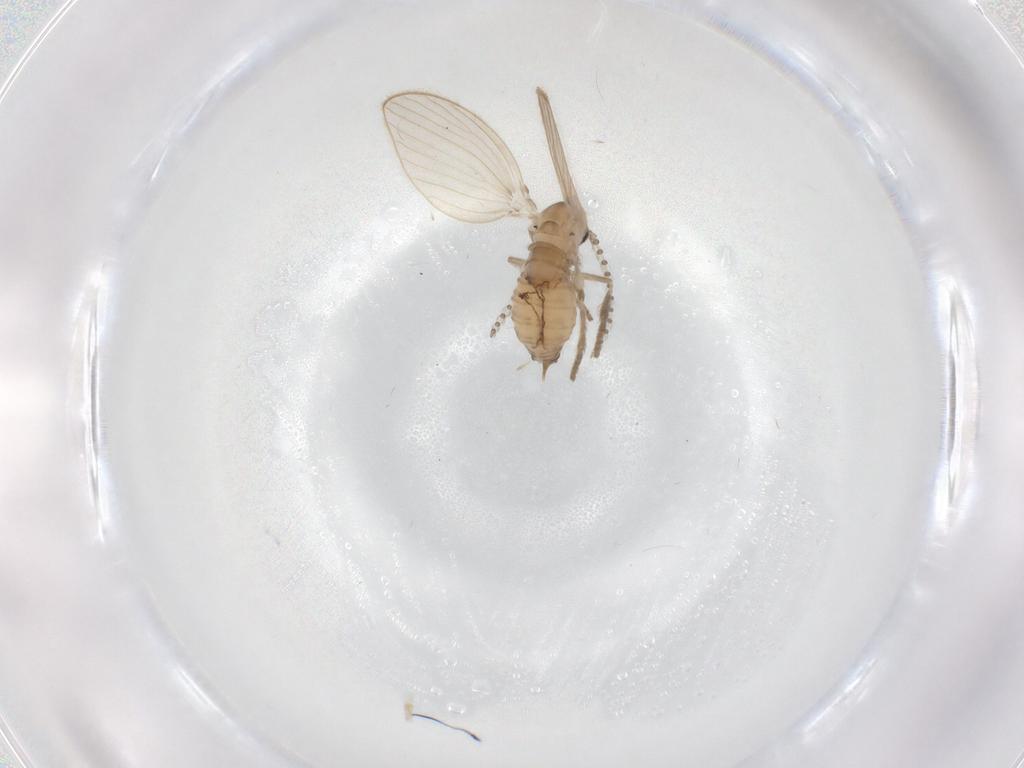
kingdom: Animalia
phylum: Arthropoda
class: Insecta
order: Diptera
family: Psychodidae
